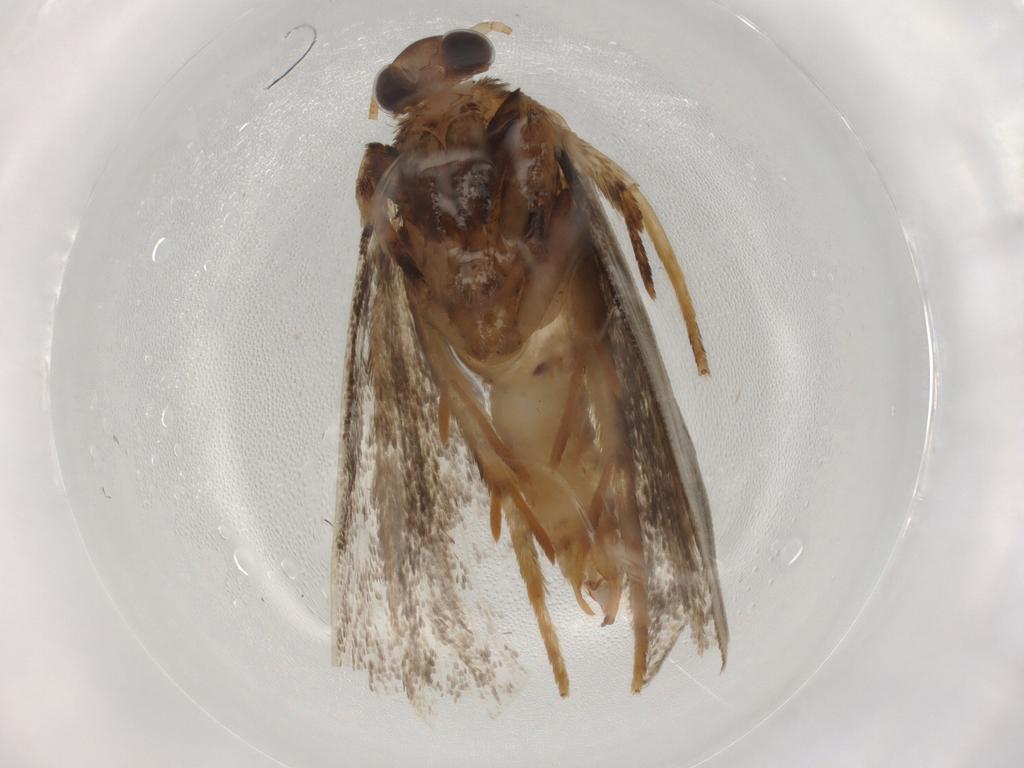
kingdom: Animalia
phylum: Arthropoda
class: Insecta
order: Lepidoptera
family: Tineidae
